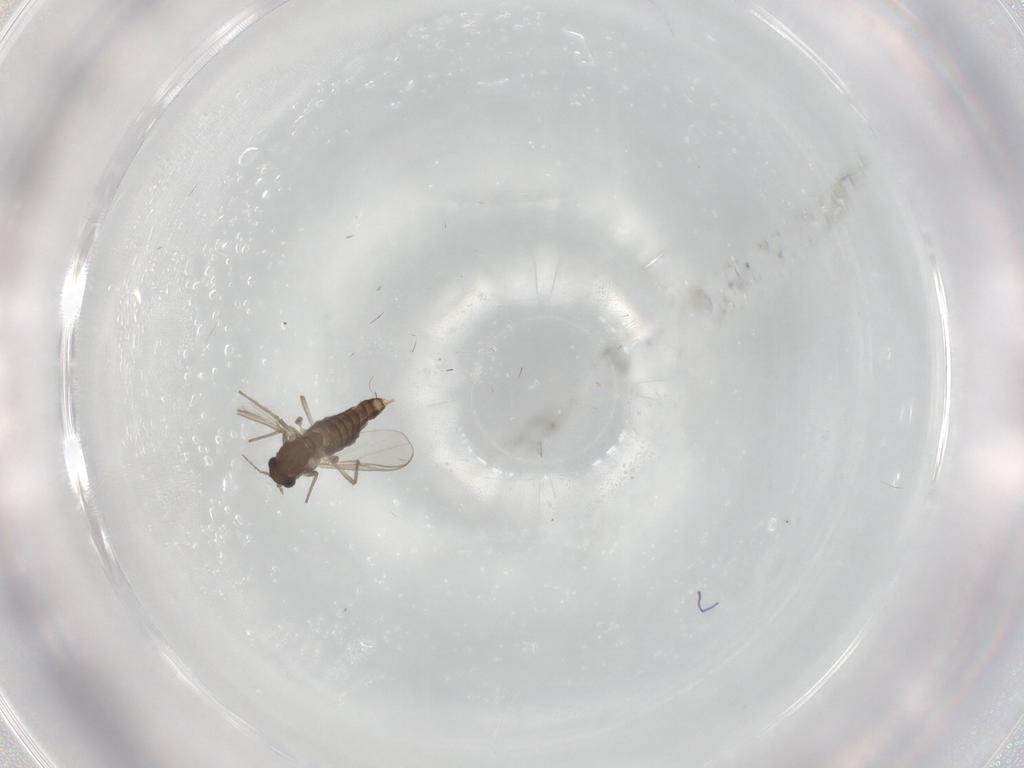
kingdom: Animalia
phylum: Arthropoda
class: Insecta
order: Diptera
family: Chironomidae
